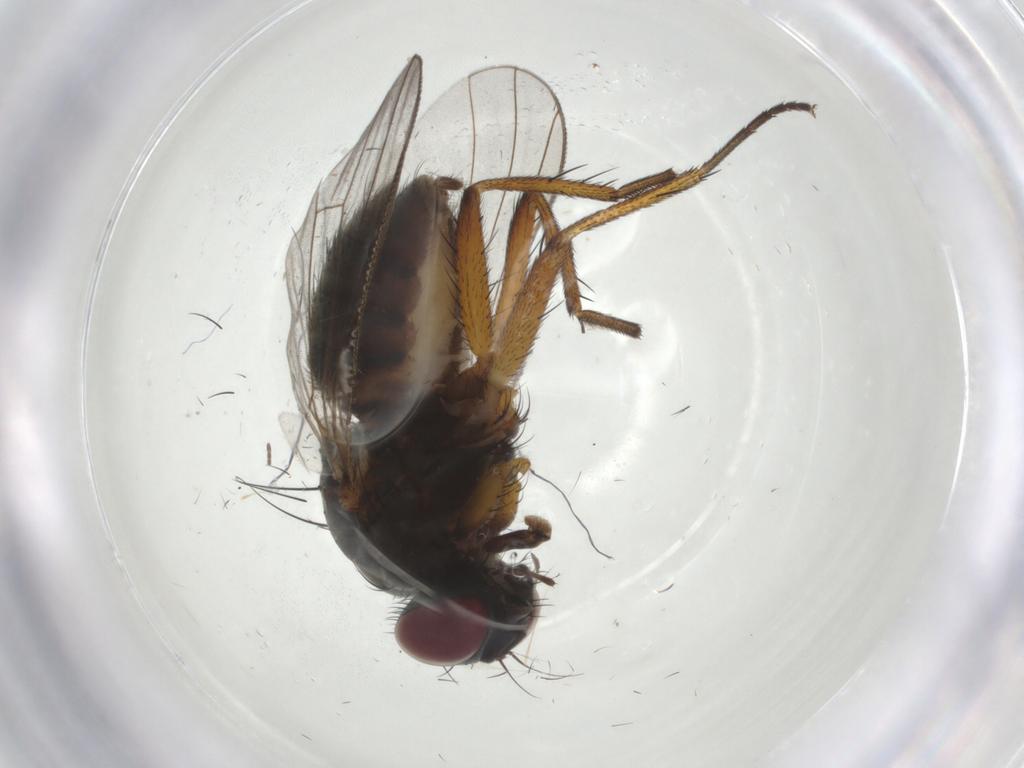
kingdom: Animalia
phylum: Arthropoda
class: Insecta
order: Diptera
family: Muscidae
